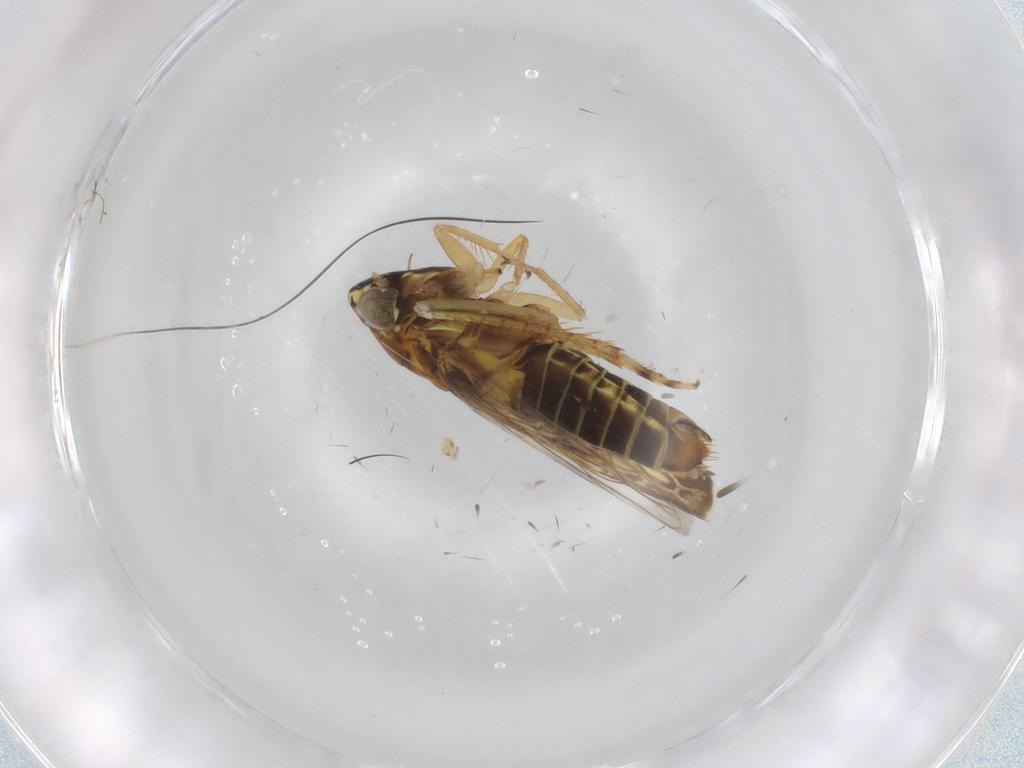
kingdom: Animalia
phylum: Arthropoda
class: Insecta
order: Hemiptera
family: Cicadellidae
